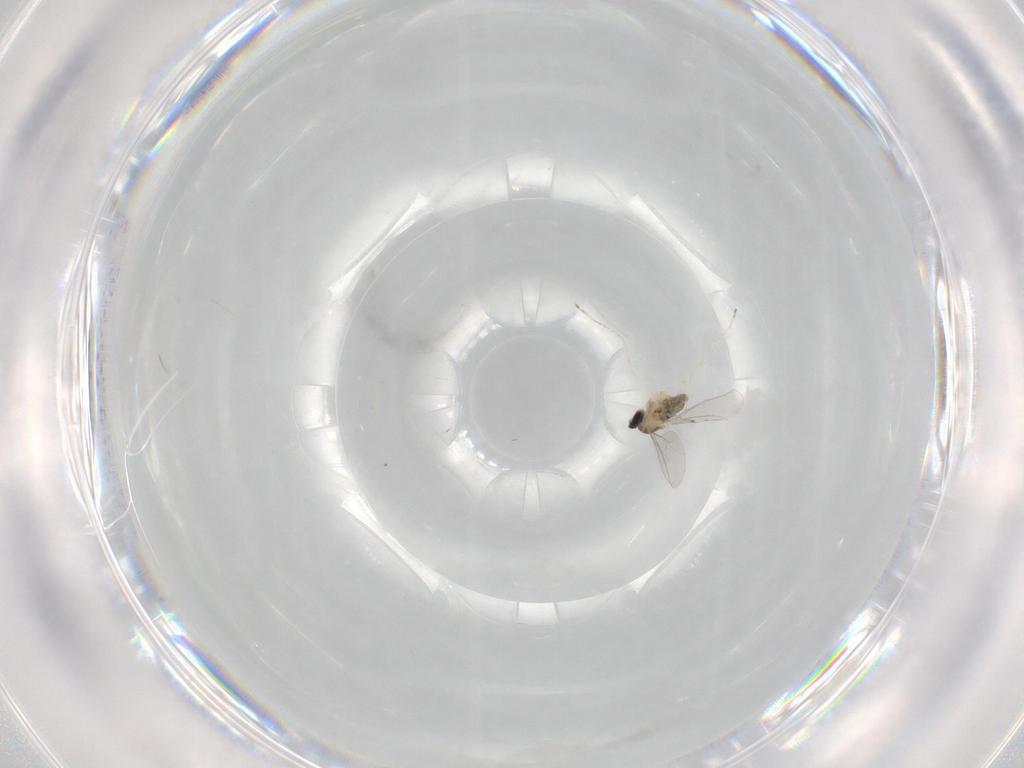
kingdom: Animalia
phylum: Arthropoda
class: Insecta
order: Diptera
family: Cecidomyiidae
